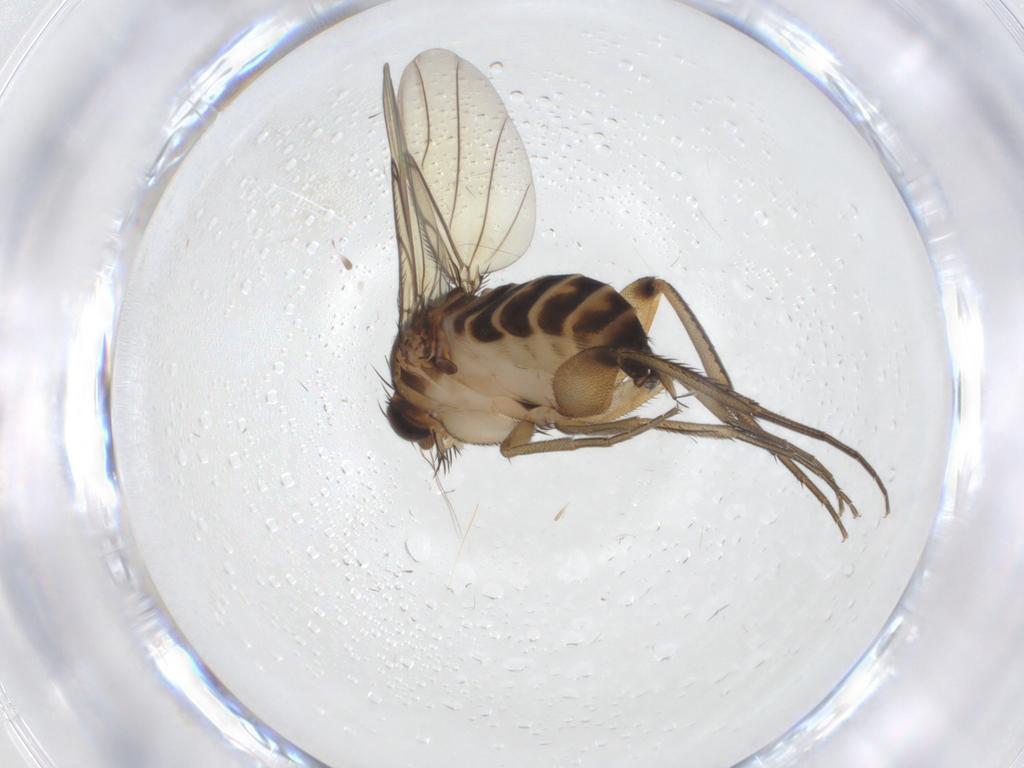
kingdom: Animalia
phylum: Arthropoda
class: Insecta
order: Diptera
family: Phoridae
